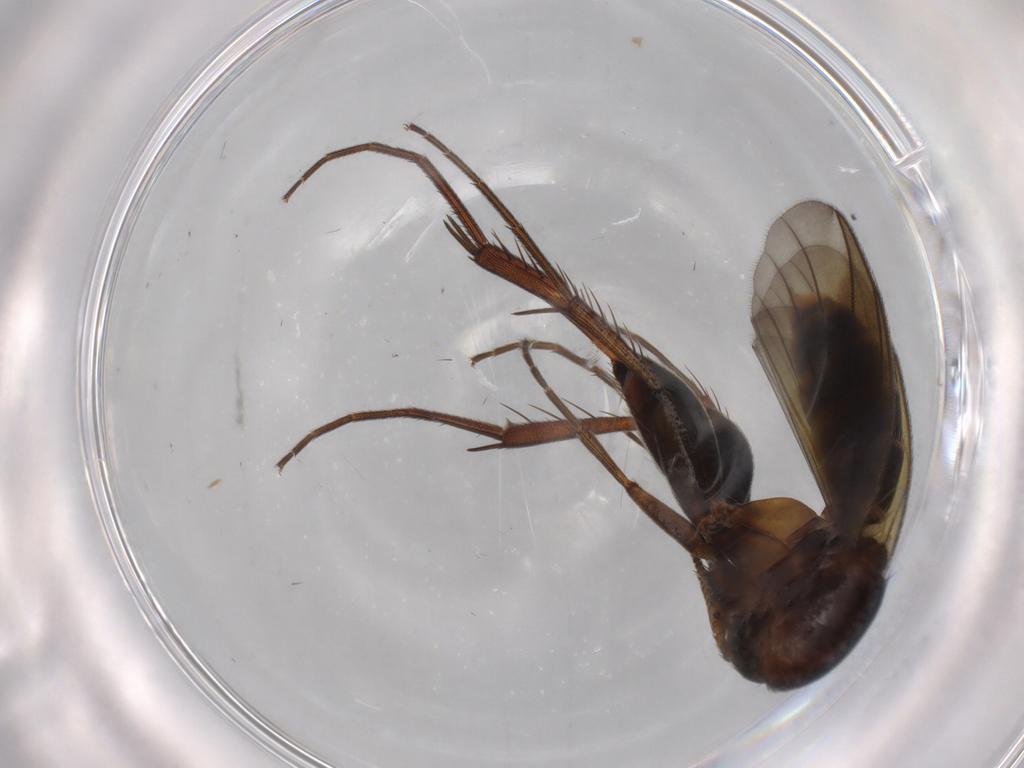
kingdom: Animalia
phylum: Arthropoda
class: Insecta
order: Diptera
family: Mycetophilidae
